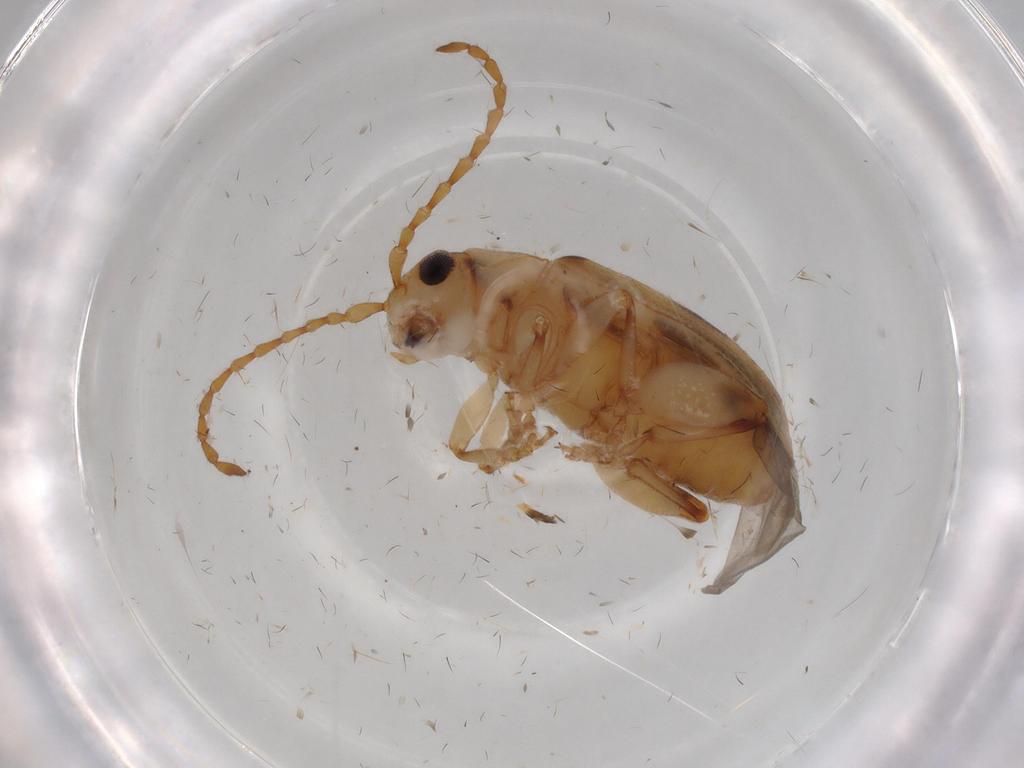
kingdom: Animalia
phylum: Arthropoda
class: Insecta
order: Coleoptera
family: Chrysomelidae
